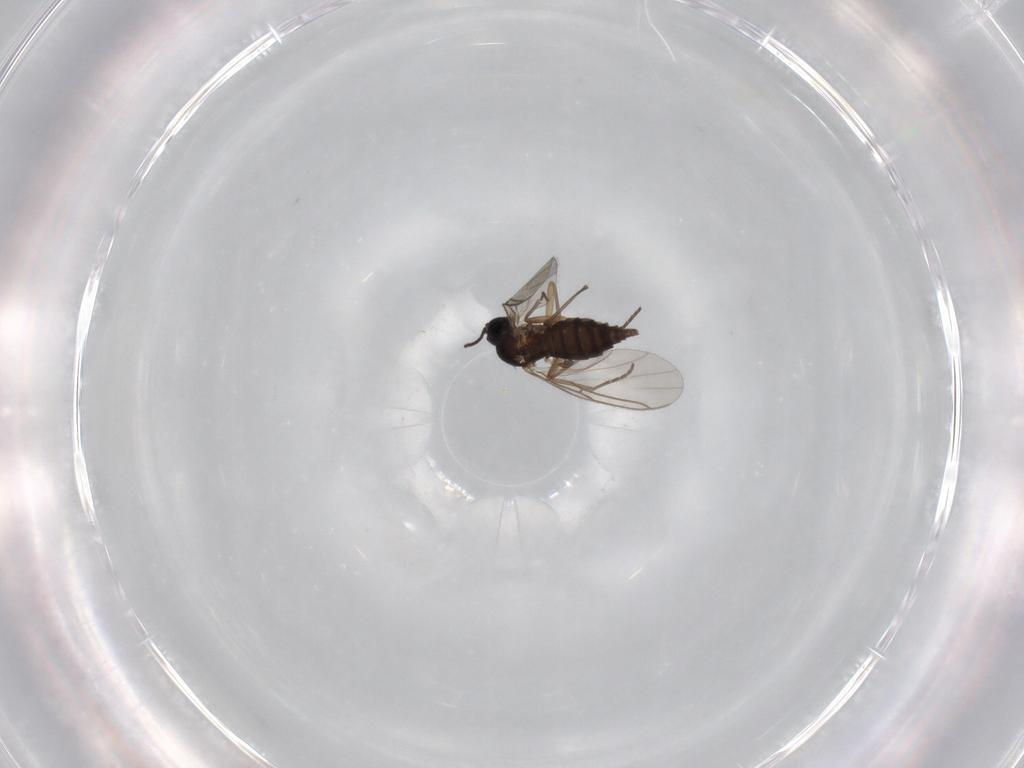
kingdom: Animalia
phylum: Arthropoda
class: Insecta
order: Diptera
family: Sciaridae
